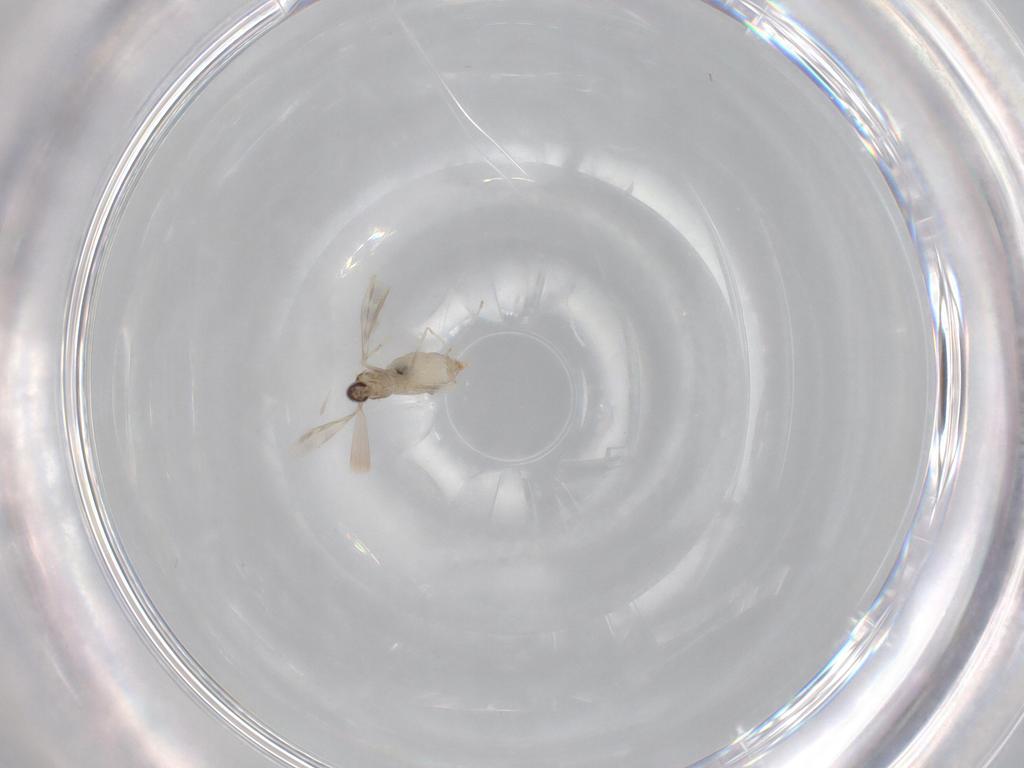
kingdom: Animalia
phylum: Arthropoda
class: Insecta
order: Diptera
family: Cecidomyiidae
